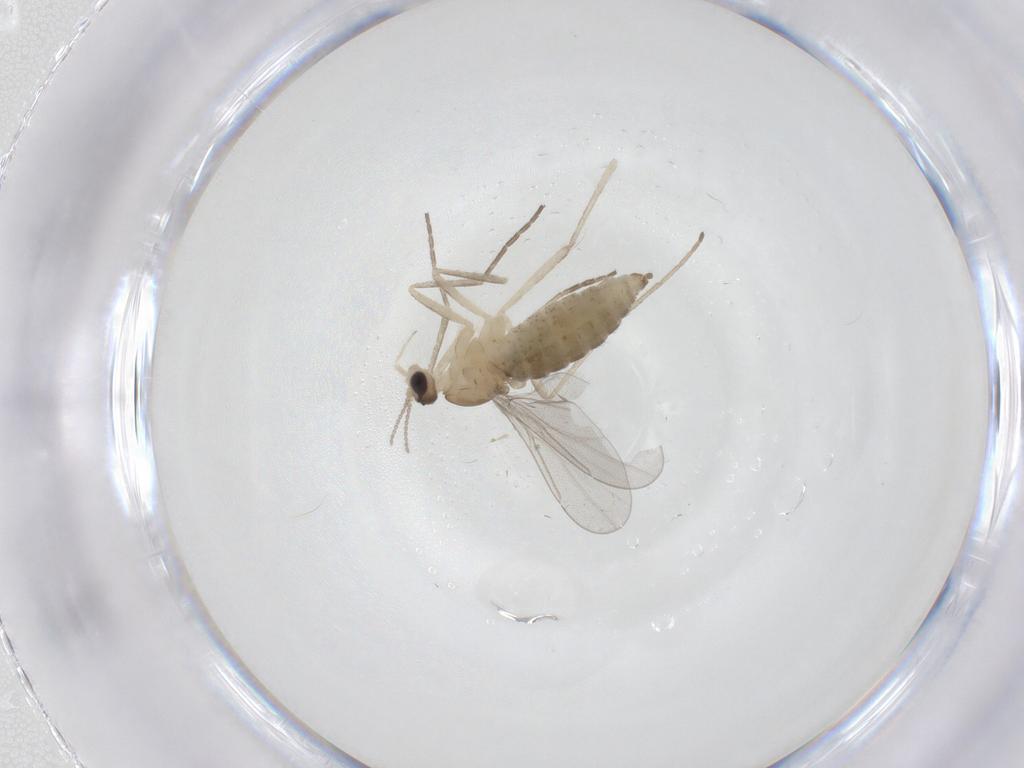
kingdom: Animalia
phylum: Arthropoda
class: Insecta
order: Diptera
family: Cecidomyiidae
